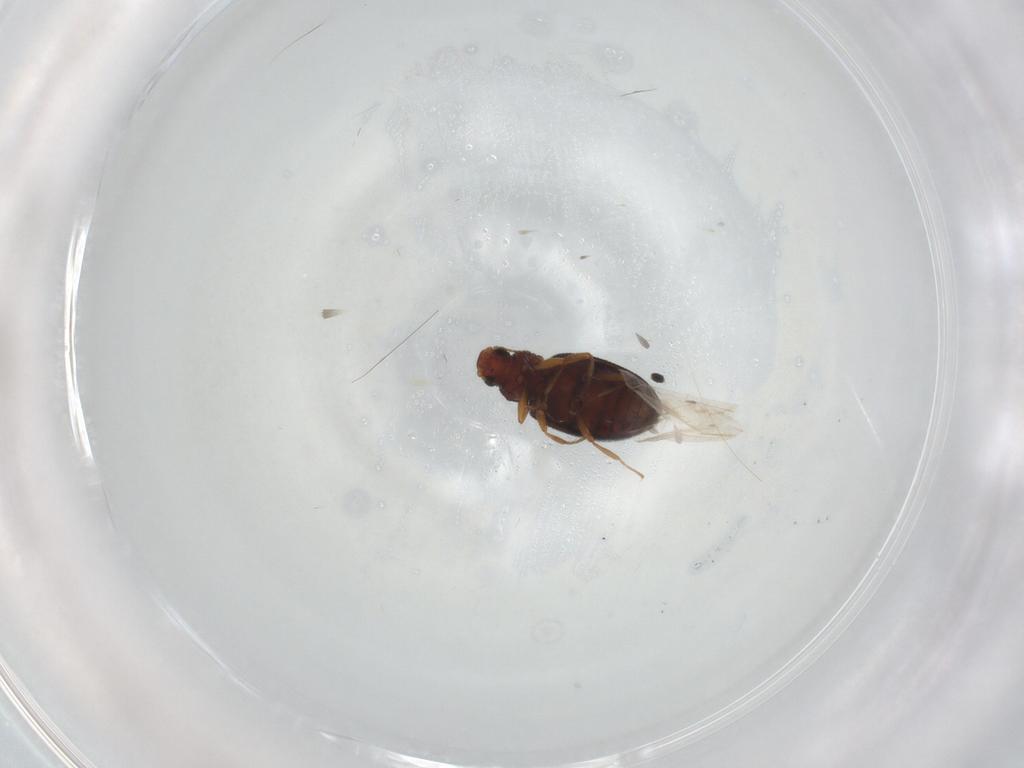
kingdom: Animalia
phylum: Arthropoda
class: Insecta
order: Coleoptera
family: Latridiidae
